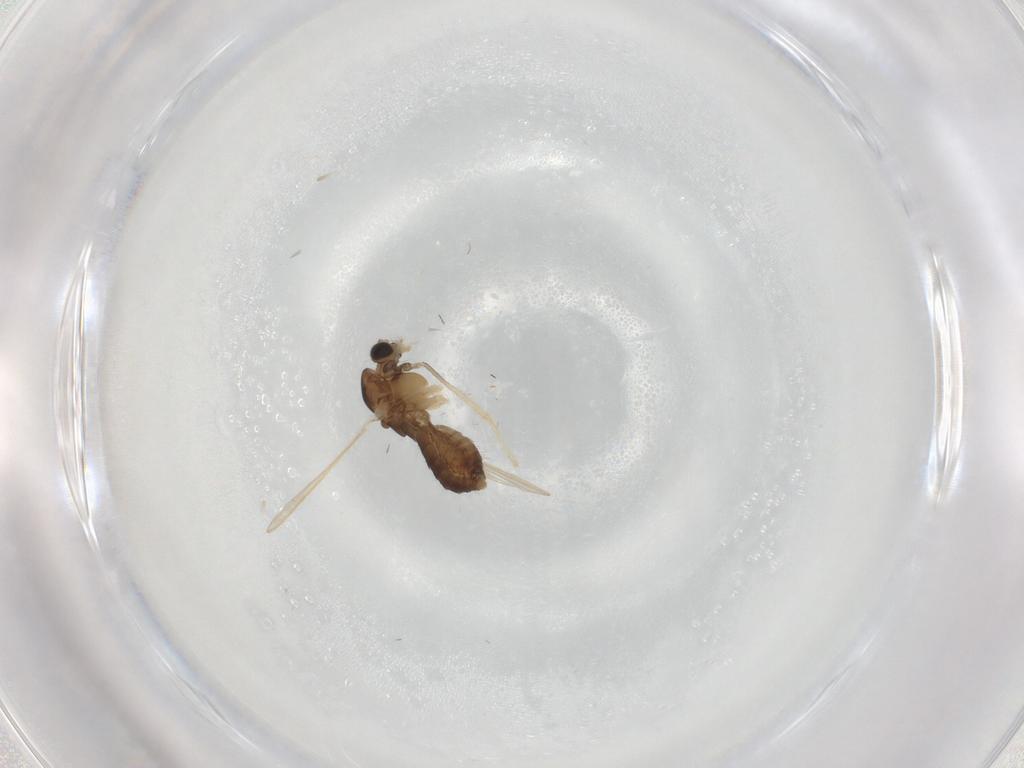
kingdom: Animalia
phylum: Arthropoda
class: Insecta
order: Diptera
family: Chironomidae
